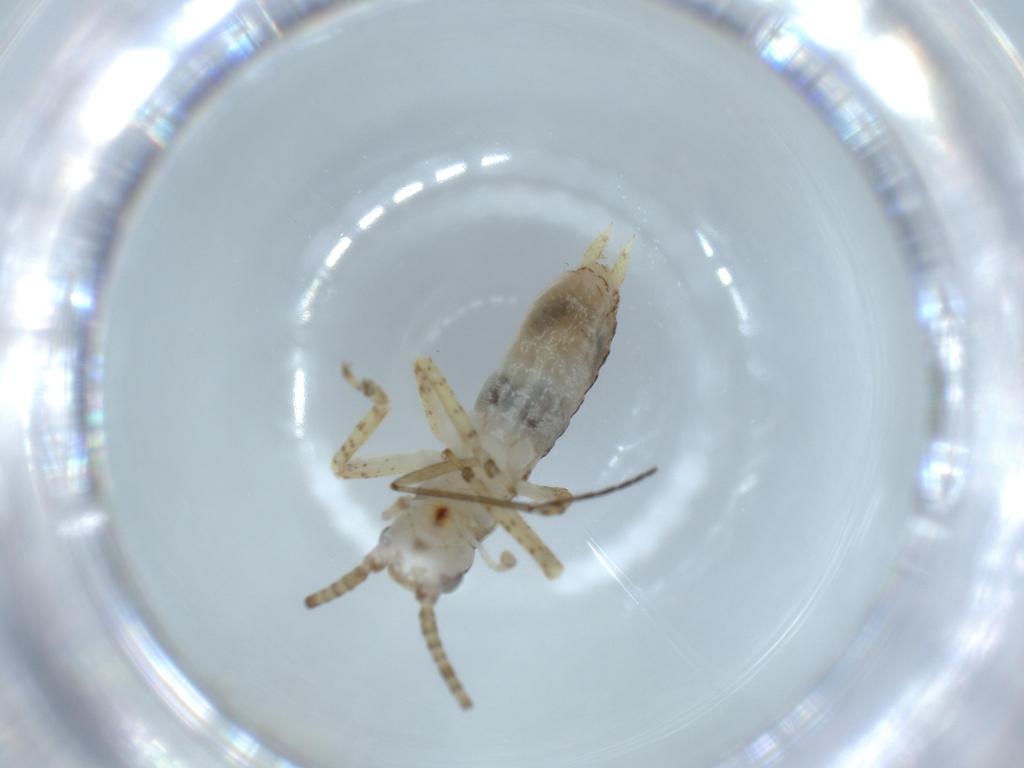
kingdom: Animalia
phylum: Arthropoda
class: Insecta
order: Orthoptera
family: Gryllidae
